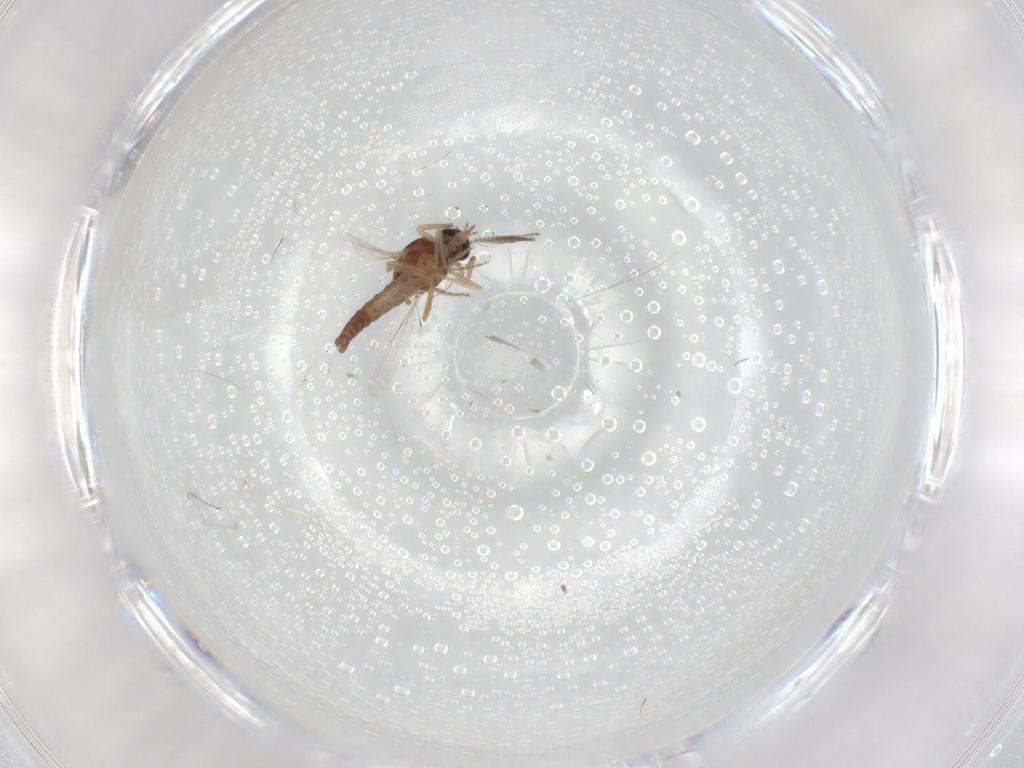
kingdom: Animalia
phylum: Arthropoda
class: Insecta
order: Diptera
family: Ceratopogonidae
